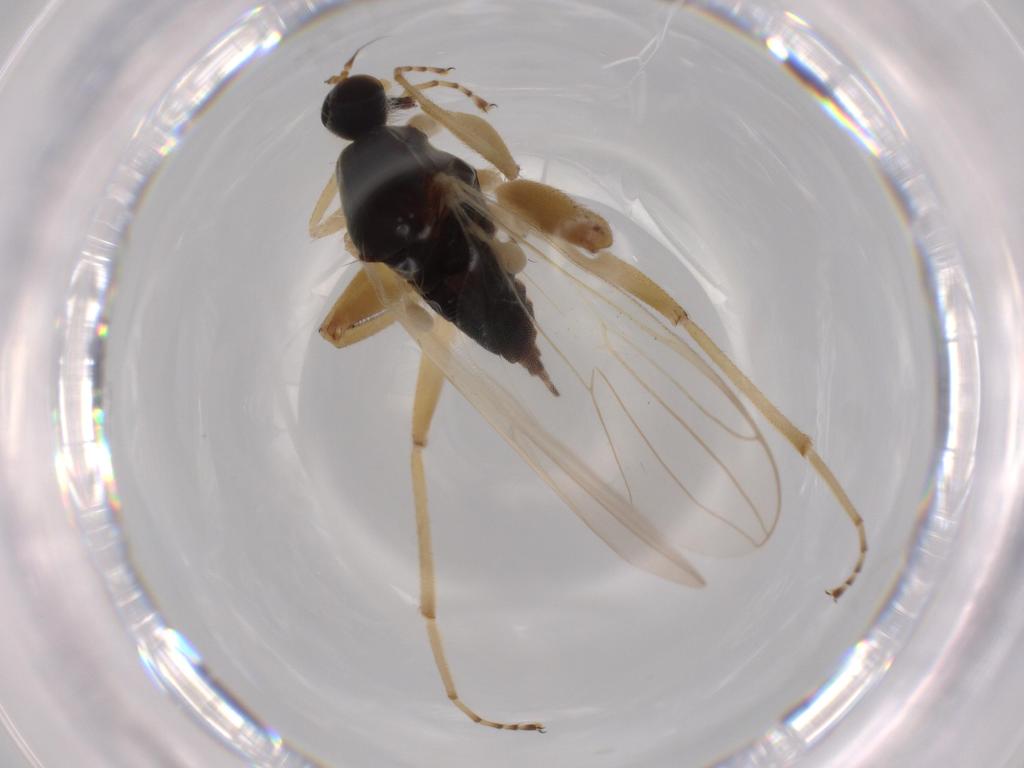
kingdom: Animalia
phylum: Arthropoda
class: Insecta
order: Diptera
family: Hybotidae
